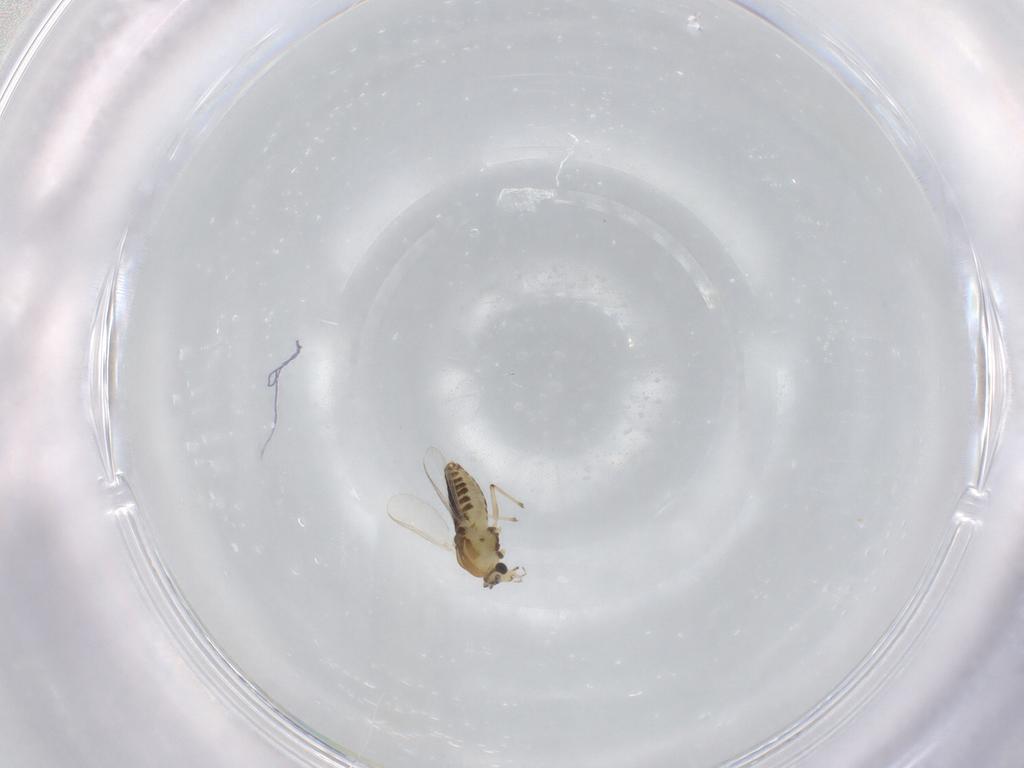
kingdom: Animalia
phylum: Arthropoda
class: Insecta
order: Diptera
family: Chironomidae
